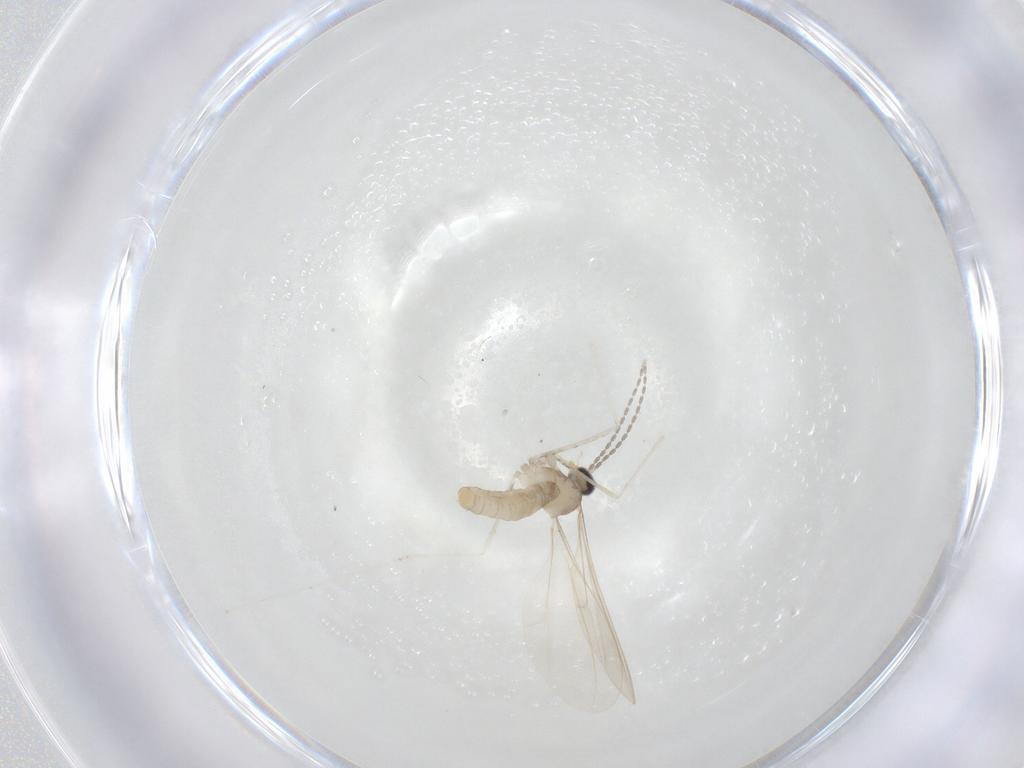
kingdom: Animalia
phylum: Arthropoda
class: Insecta
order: Diptera
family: Cecidomyiidae
